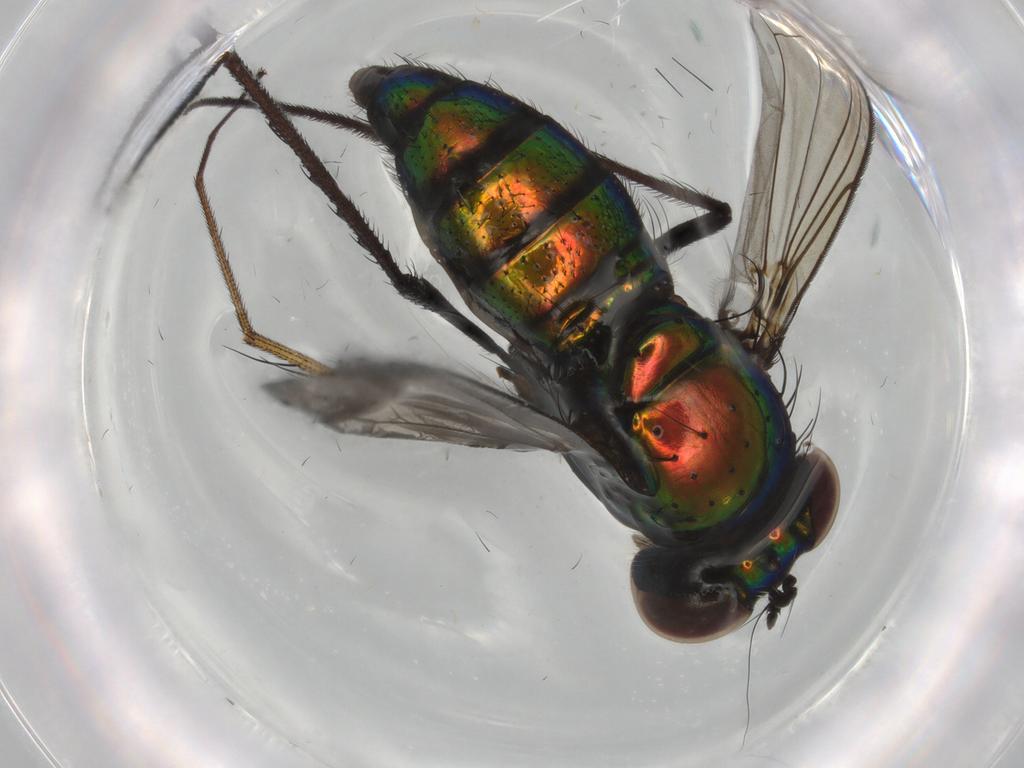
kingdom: Animalia
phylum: Arthropoda
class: Insecta
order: Diptera
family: Dolichopodidae
